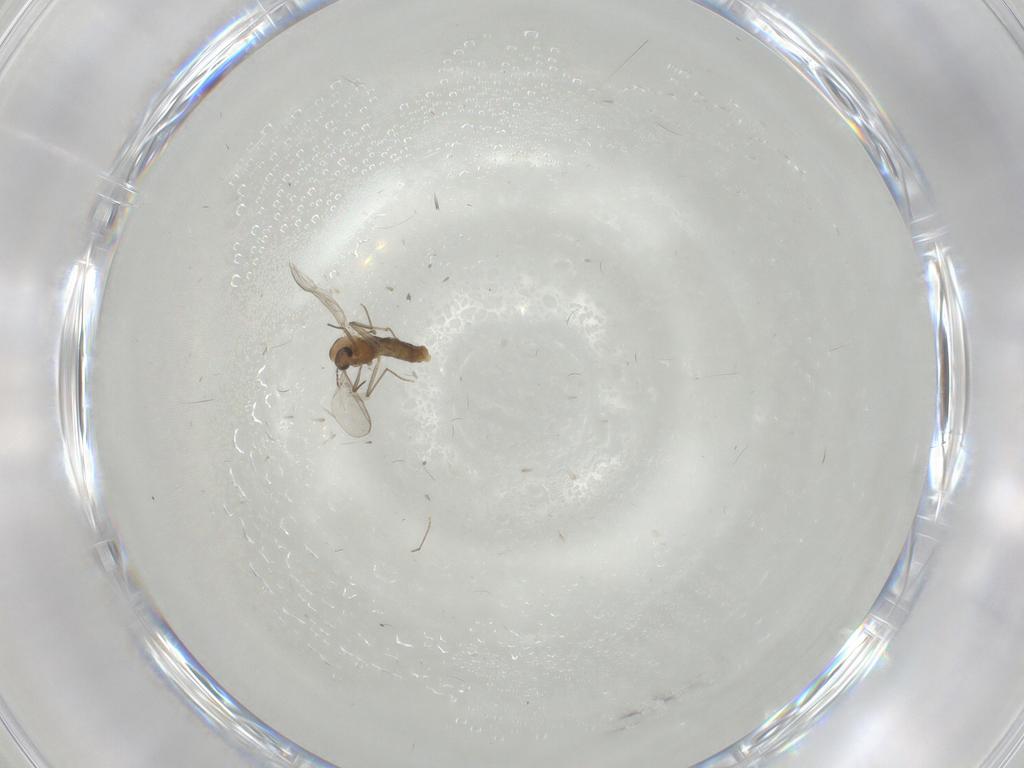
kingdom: Animalia
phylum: Arthropoda
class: Insecta
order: Diptera
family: Chironomidae
